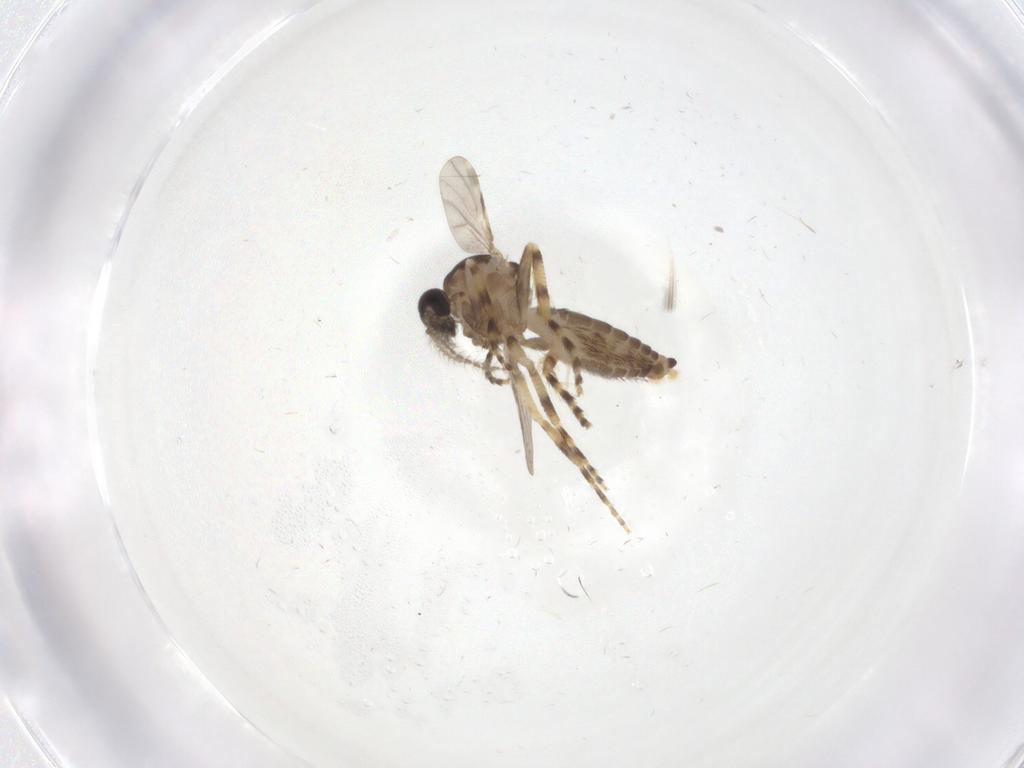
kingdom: Animalia
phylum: Arthropoda
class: Insecta
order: Diptera
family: Ceratopogonidae
